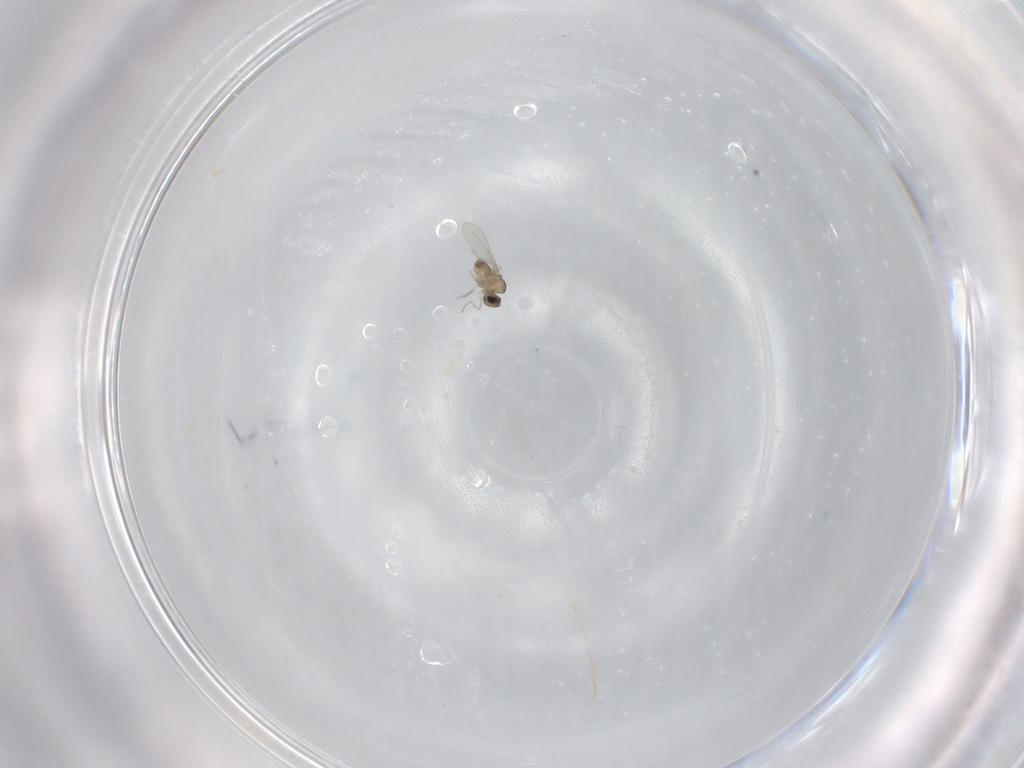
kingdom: Animalia
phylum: Arthropoda
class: Insecta
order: Diptera
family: Cecidomyiidae
